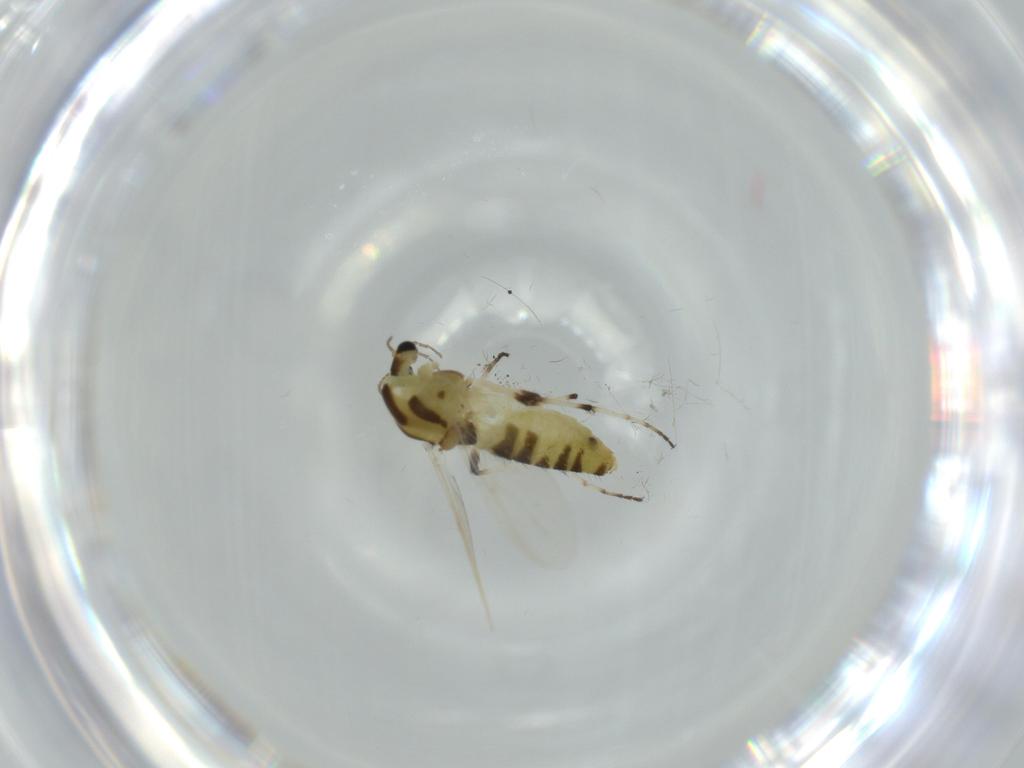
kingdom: Animalia
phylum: Arthropoda
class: Insecta
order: Diptera
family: Chironomidae
